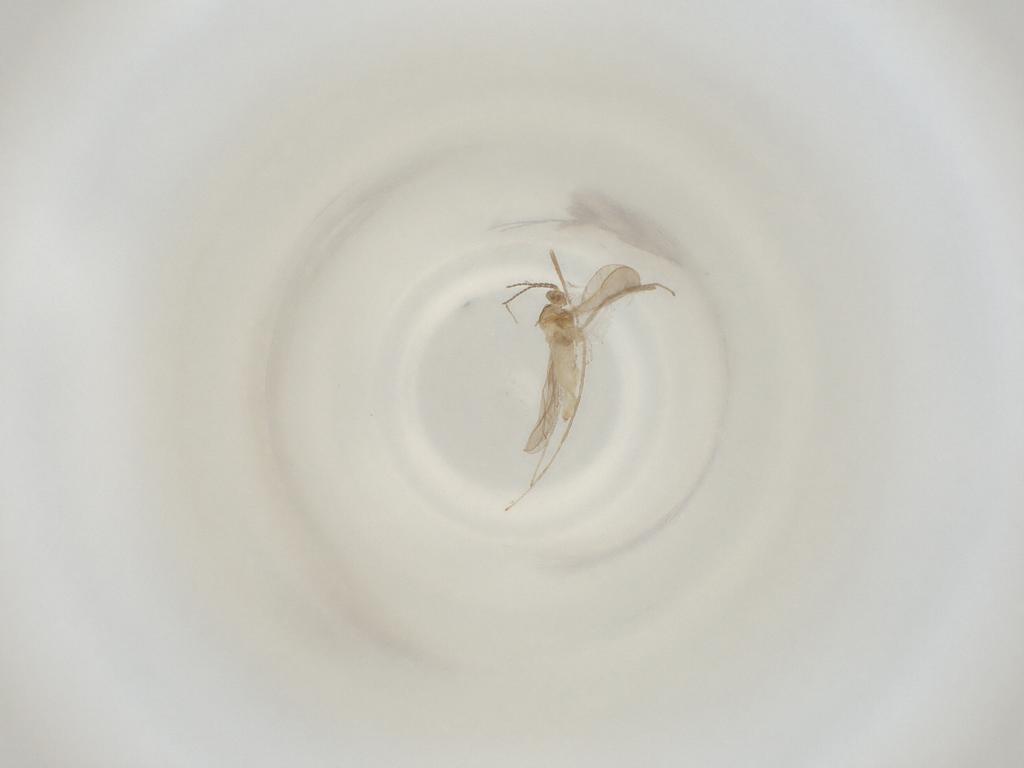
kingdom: Animalia
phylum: Arthropoda
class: Insecta
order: Diptera
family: Cecidomyiidae
